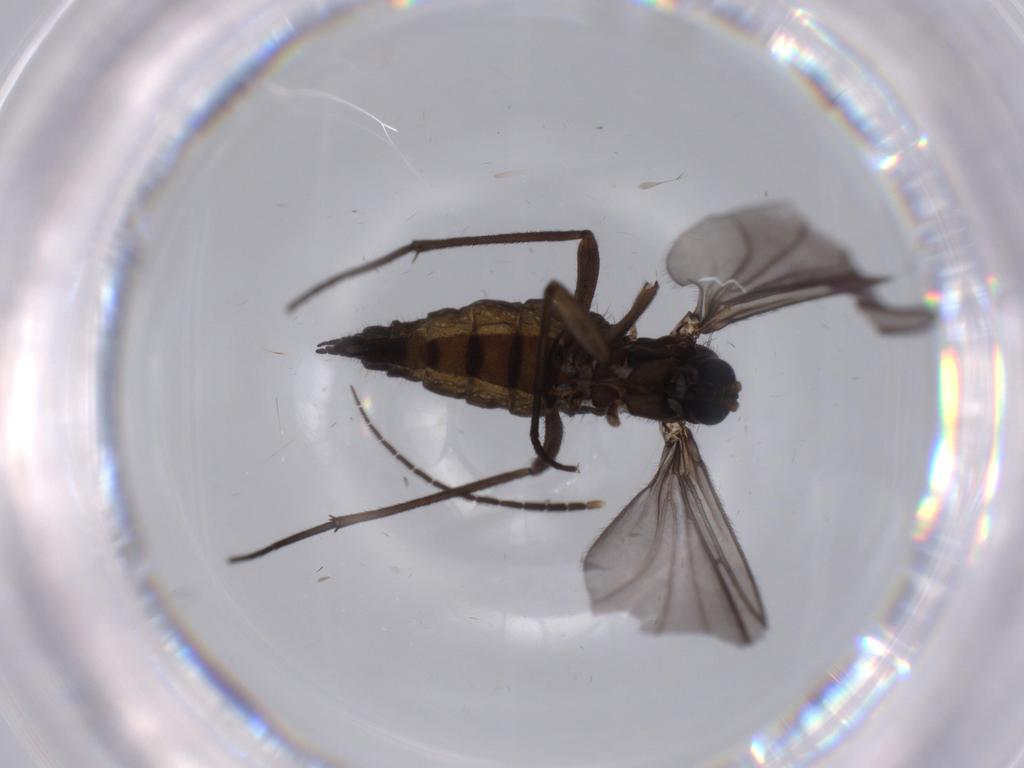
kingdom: Animalia
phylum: Arthropoda
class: Insecta
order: Diptera
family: Sciaridae
